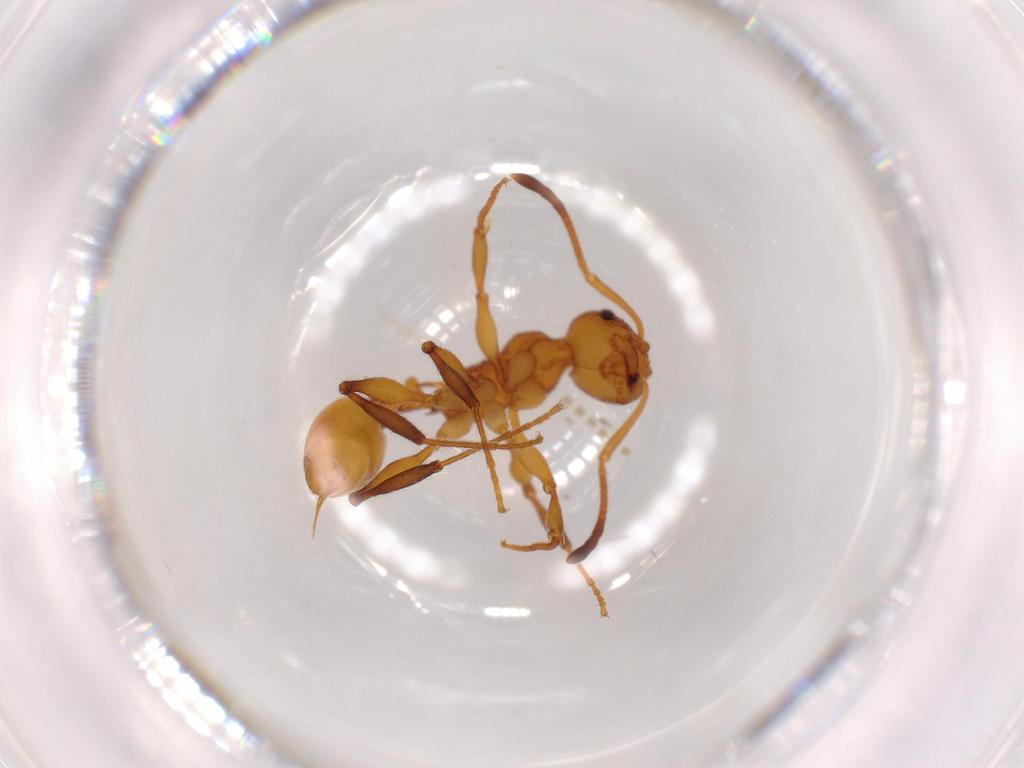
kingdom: Animalia
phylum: Arthropoda
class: Insecta
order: Hymenoptera
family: Formicidae
